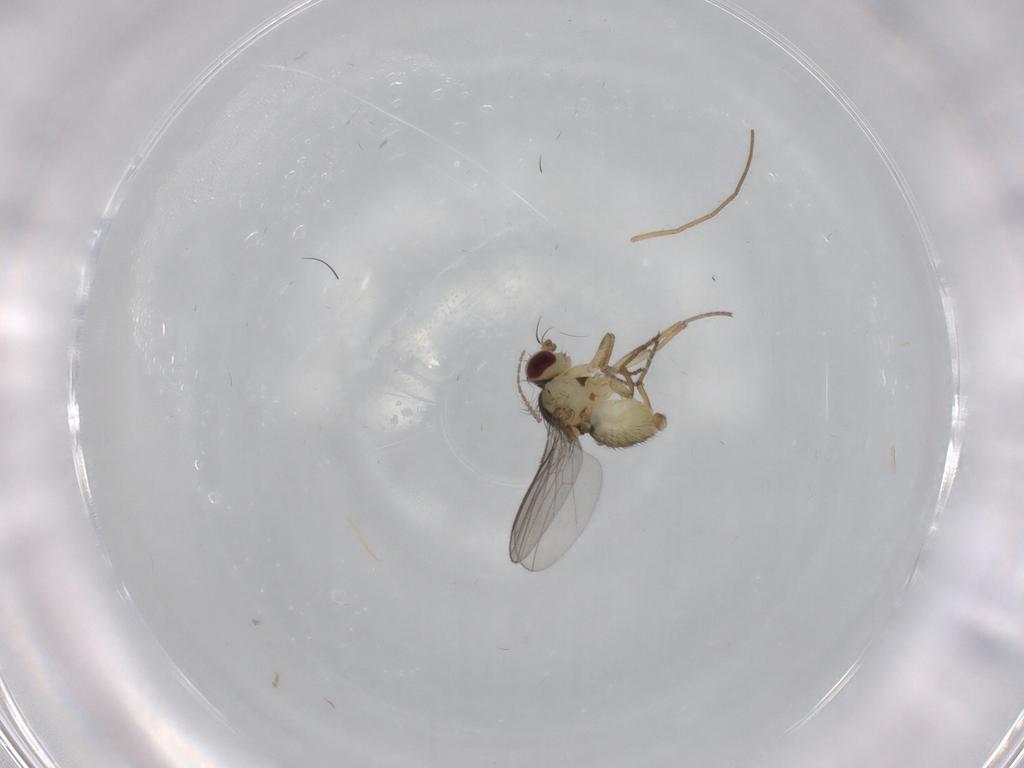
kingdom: Animalia
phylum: Arthropoda
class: Insecta
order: Diptera
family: Agromyzidae
